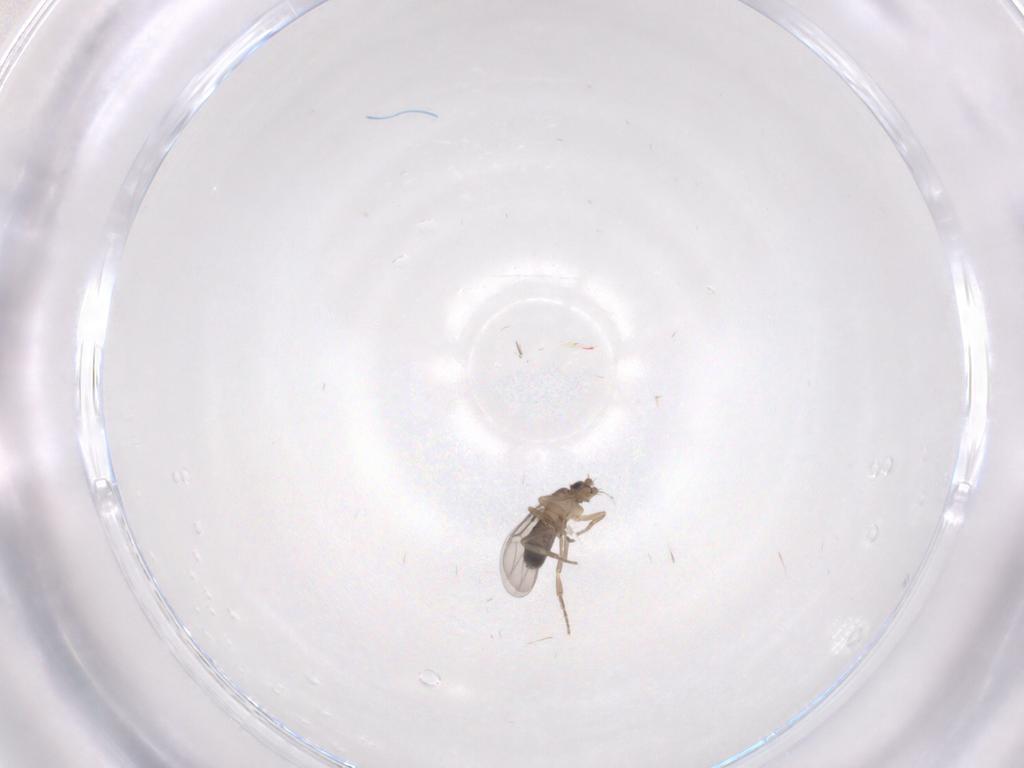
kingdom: Animalia
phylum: Arthropoda
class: Insecta
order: Diptera
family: Phoridae
